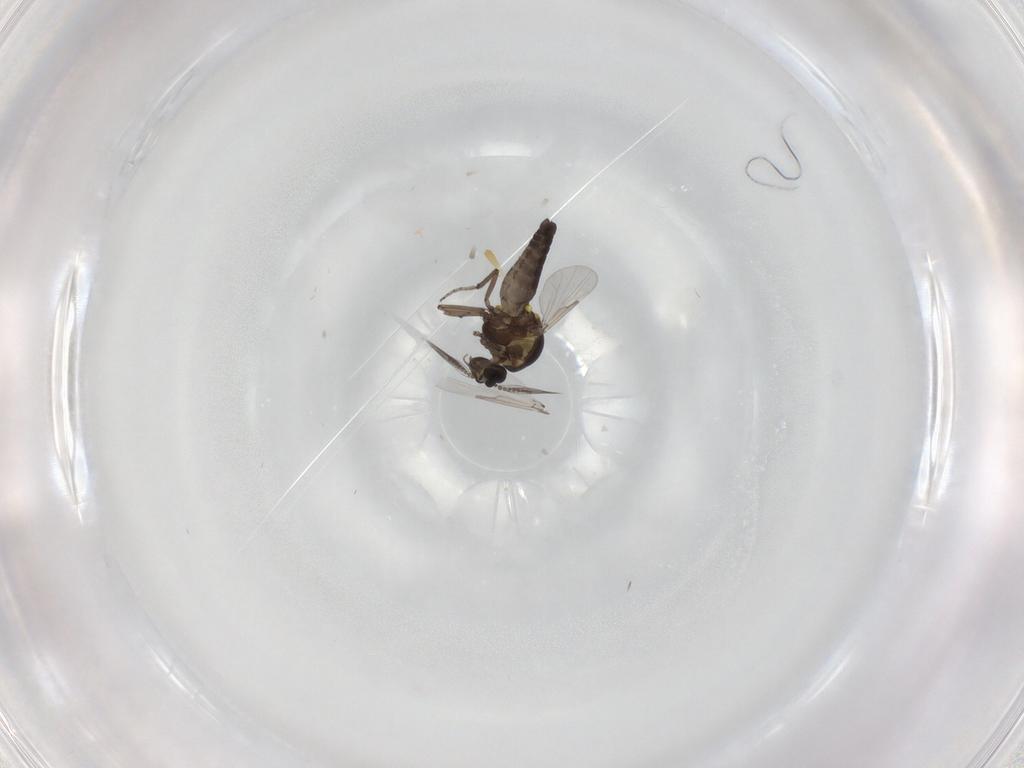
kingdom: Animalia
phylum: Arthropoda
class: Insecta
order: Diptera
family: Ceratopogonidae
